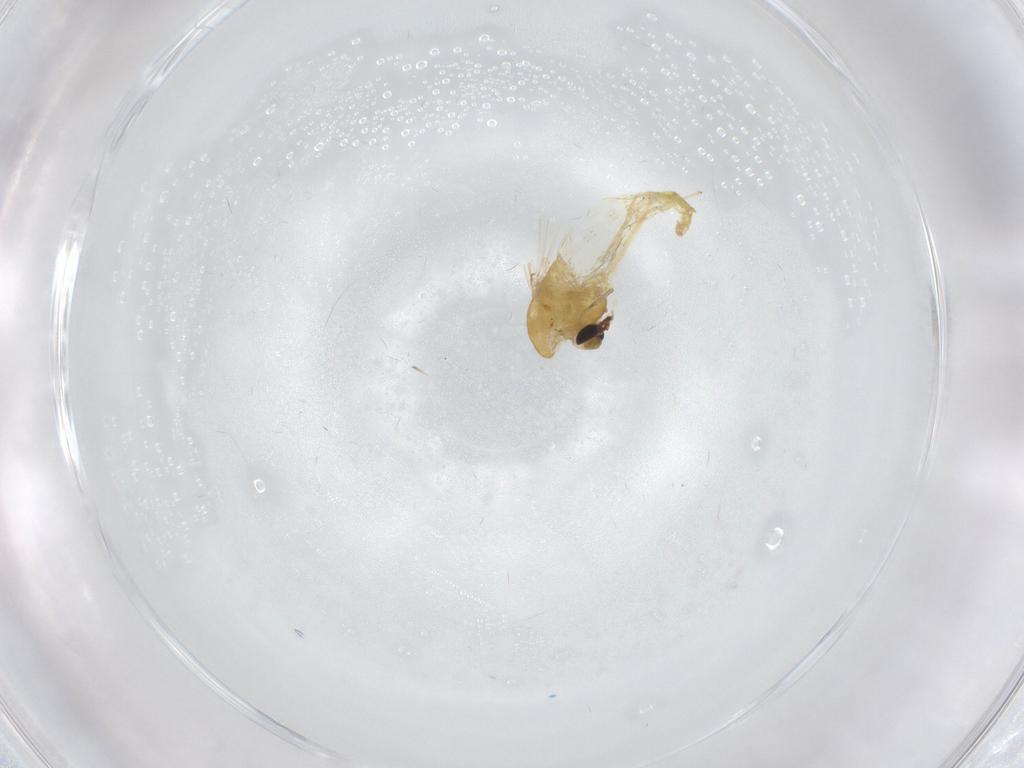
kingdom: Animalia
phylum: Arthropoda
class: Insecta
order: Diptera
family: Chironomidae
